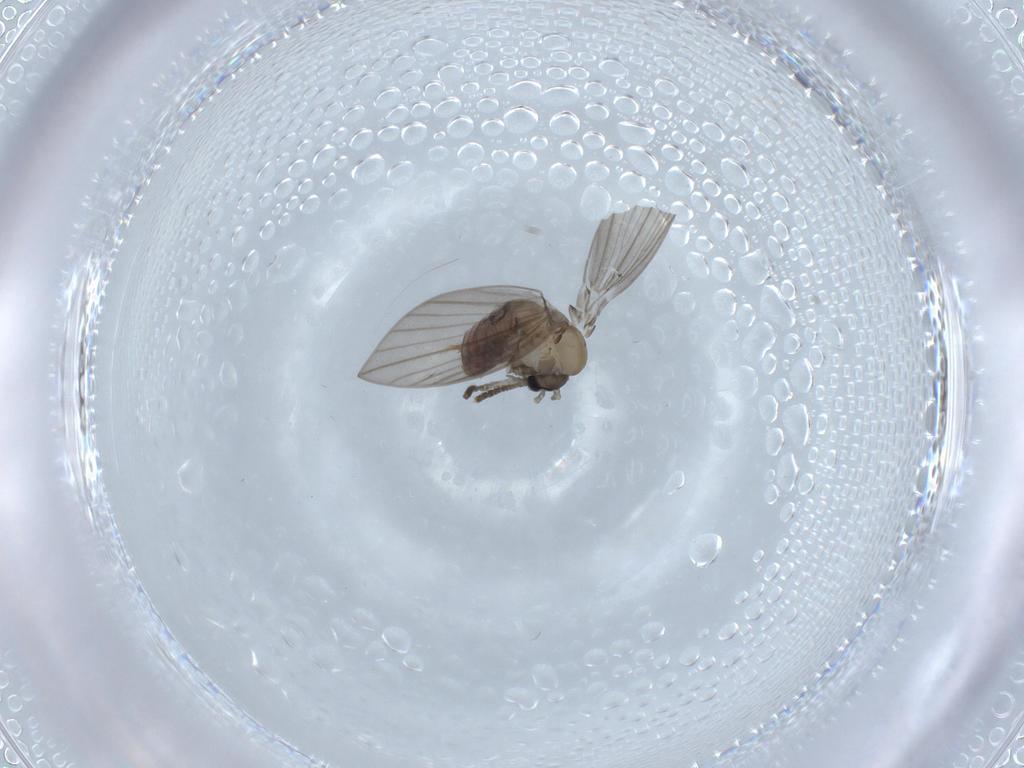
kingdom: Animalia
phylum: Arthropoda
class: Insecta
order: Diptera
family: Psychodidae
